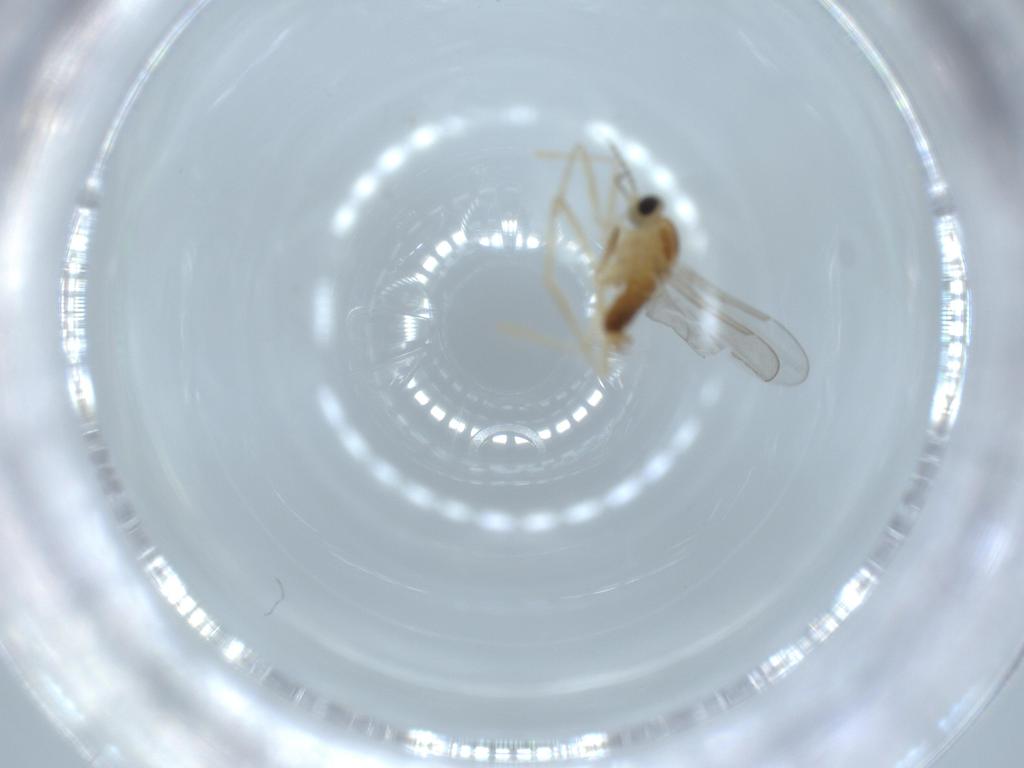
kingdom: Animalia
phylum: Arthropoda
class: Insecta
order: Diptera
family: Cecidomyiidae
